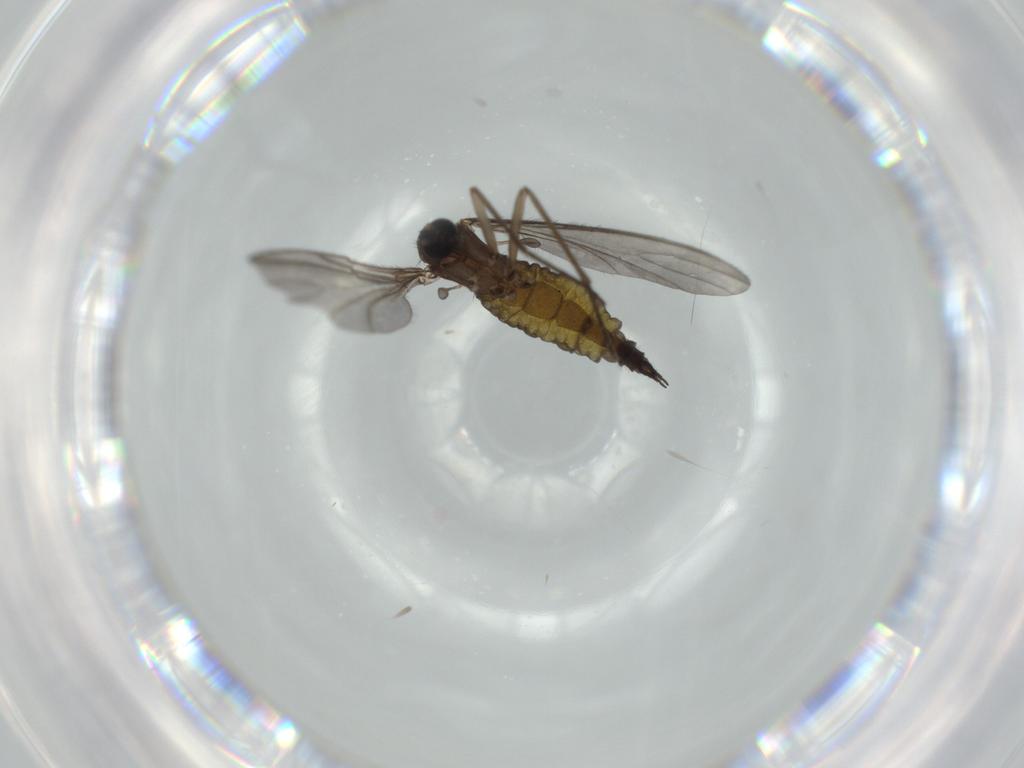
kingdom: Animalia
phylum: Arthropoda
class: Insecta
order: Diptera
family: Sciaridae
